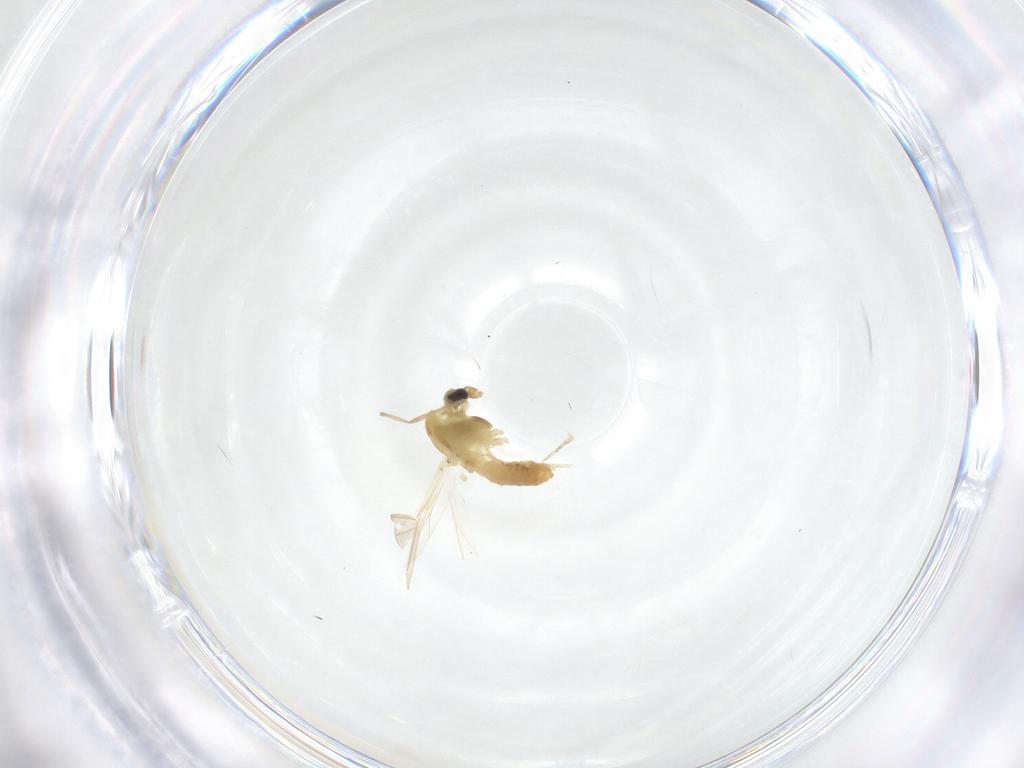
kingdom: Animalia
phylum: Arthropoda
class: Insecta
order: Diptera
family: Chironomidae
